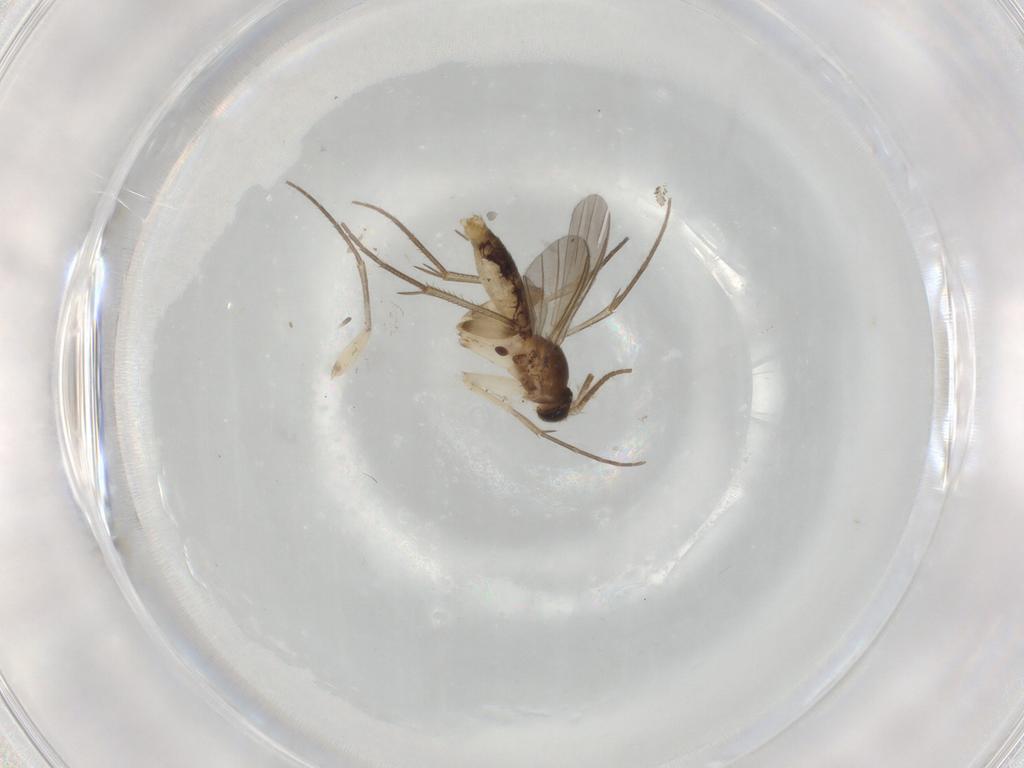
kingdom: Animalia
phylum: Arthropoda
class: Insecta
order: Diptera
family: Mycetophilidae
